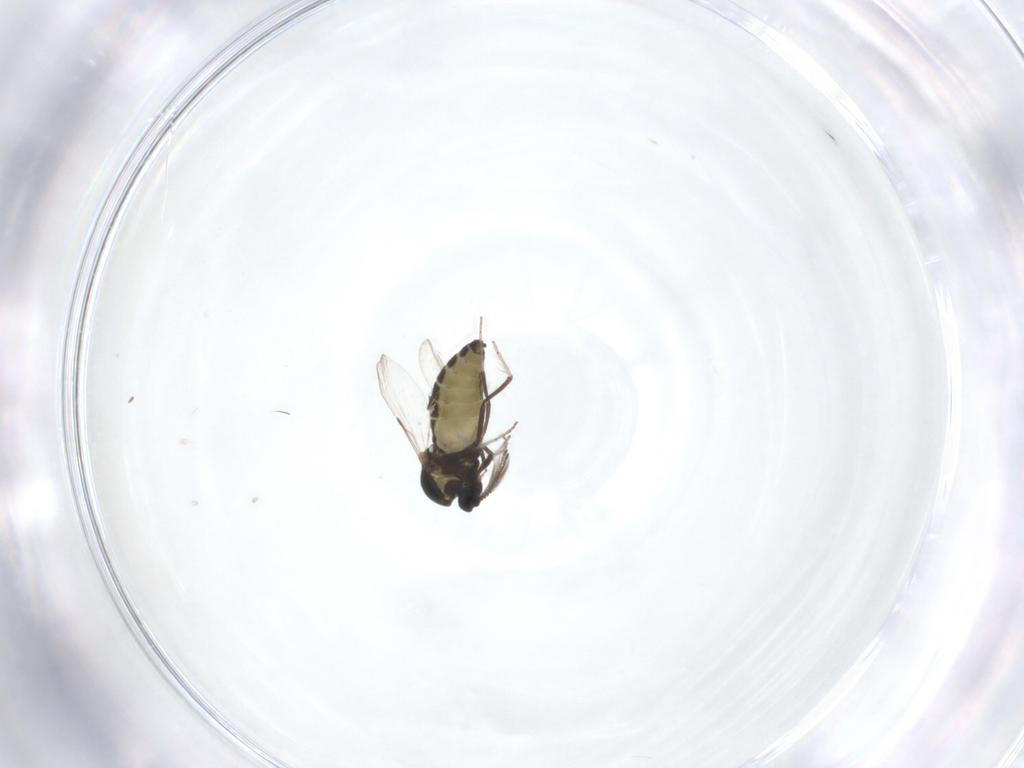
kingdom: Animalia
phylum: Arthropoda
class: Insecta
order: Diptera
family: Ceratopogonidae
